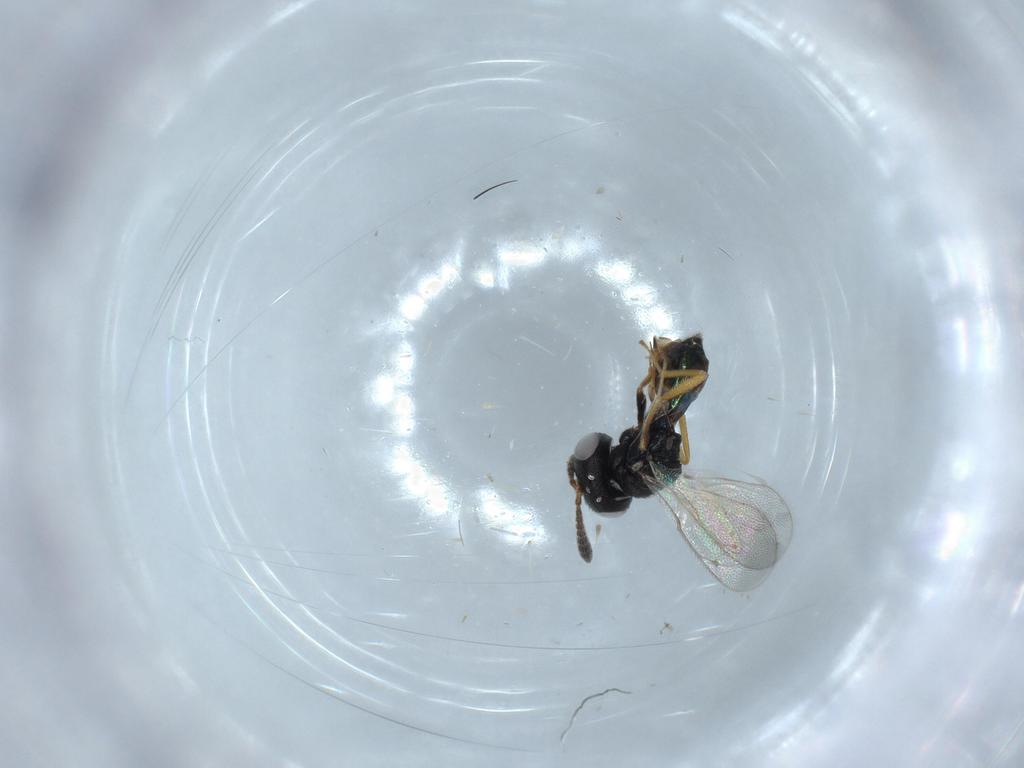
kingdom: Animalia
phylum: Arthropoda
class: Insecta
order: Hymenoptera
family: Pteromalidae
